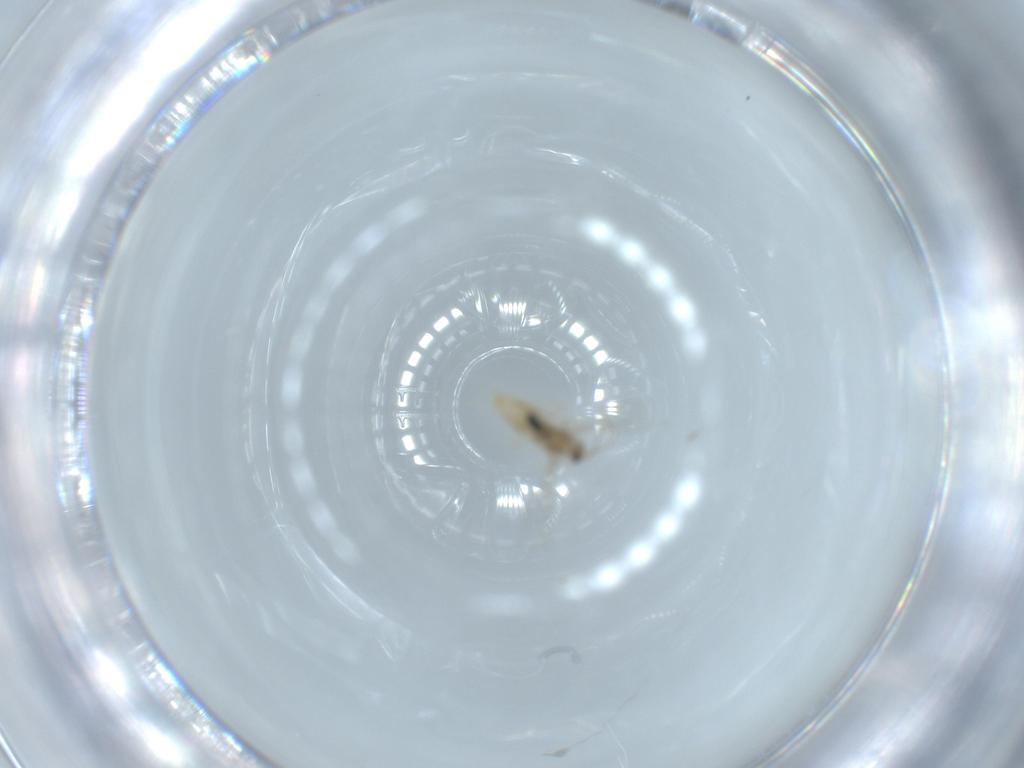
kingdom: Animalia
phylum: Arthropoda
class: Insecta
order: Diptera
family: Cecidomyiidae
